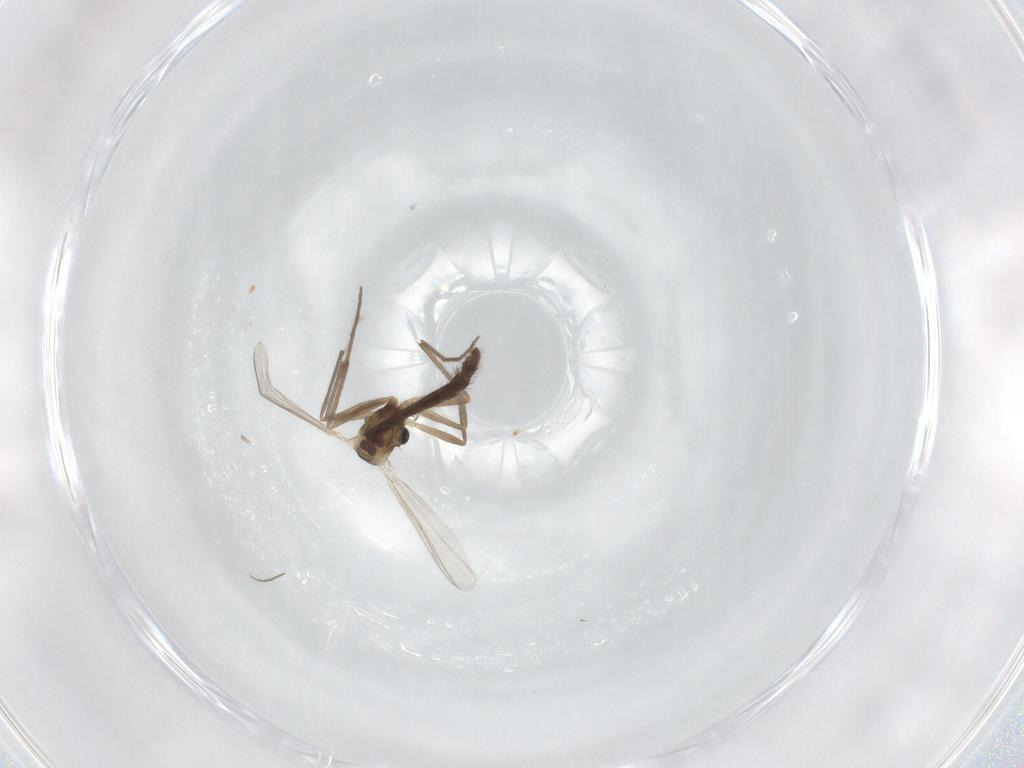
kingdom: Animalia
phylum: Arthropoda
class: Insecta
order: Diptera
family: Chironomidae
